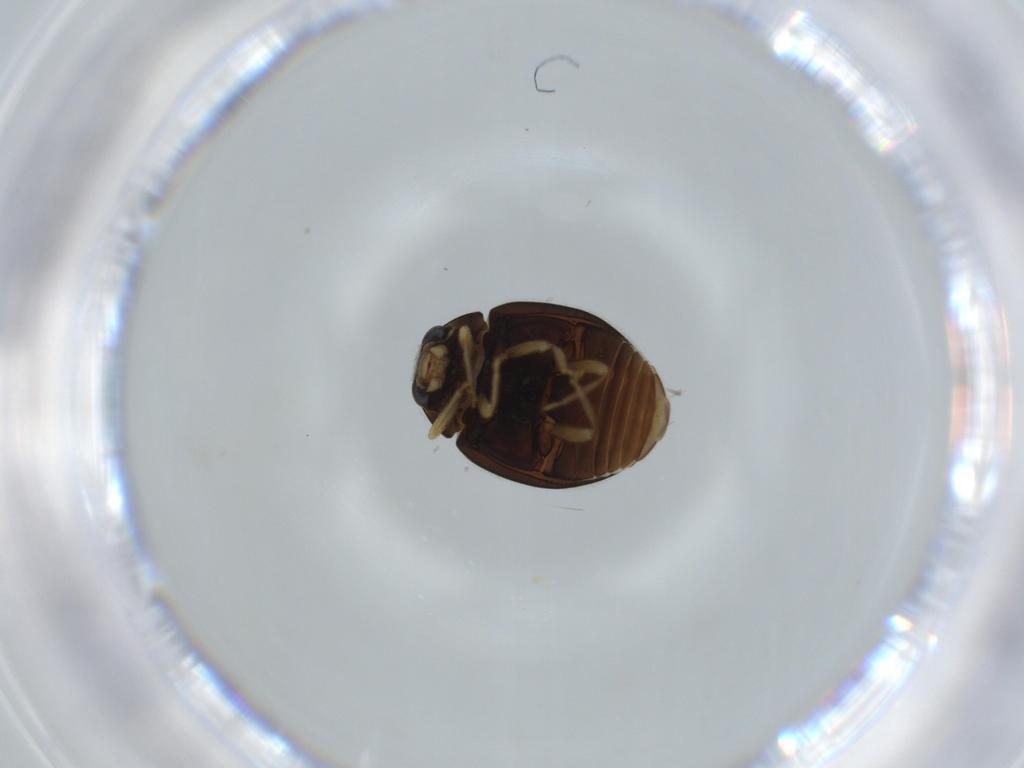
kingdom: Animalia
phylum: Arthropoda
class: Insecta
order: Coleoptera
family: Coccinellidae
